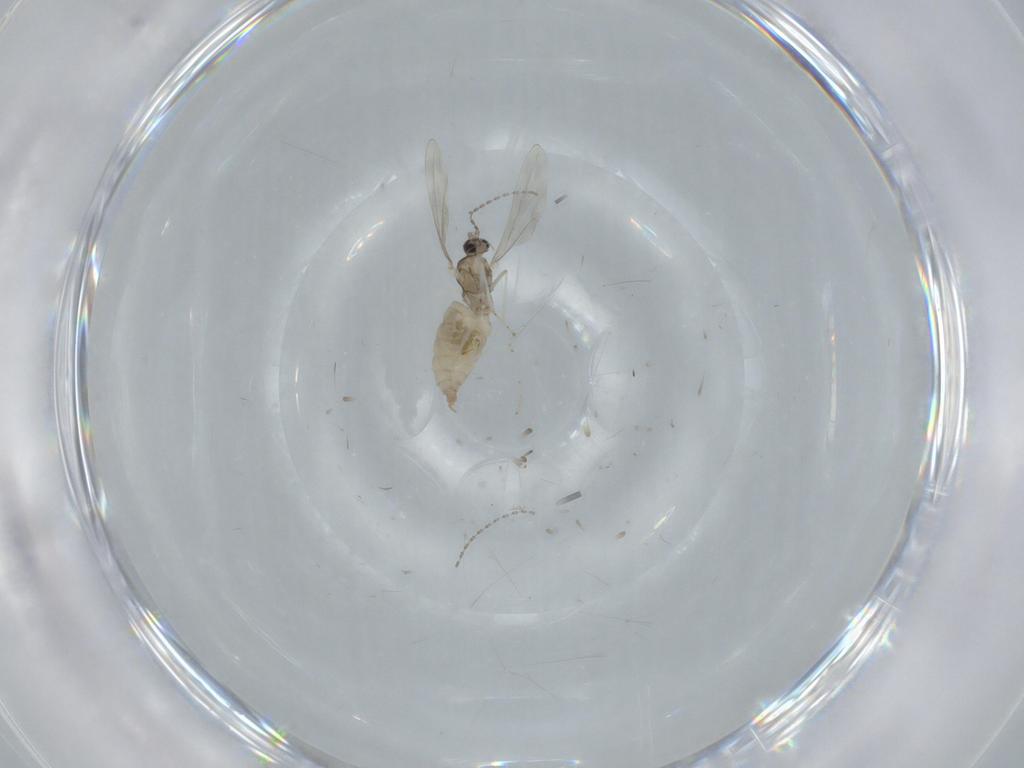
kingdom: Animalia
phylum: Arthropoda
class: Insecta
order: Diptera
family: Cecidomyiidae
